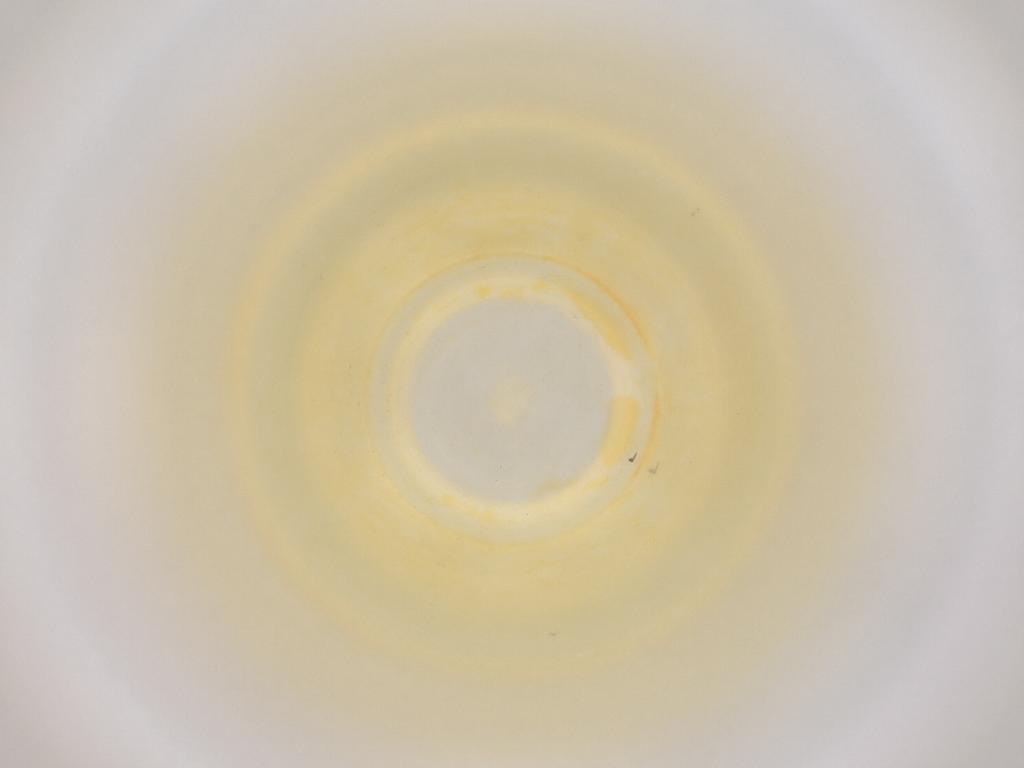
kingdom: Animalia
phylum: Arthropoda
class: Insecta
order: Diptera
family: Cecidomyiidae
